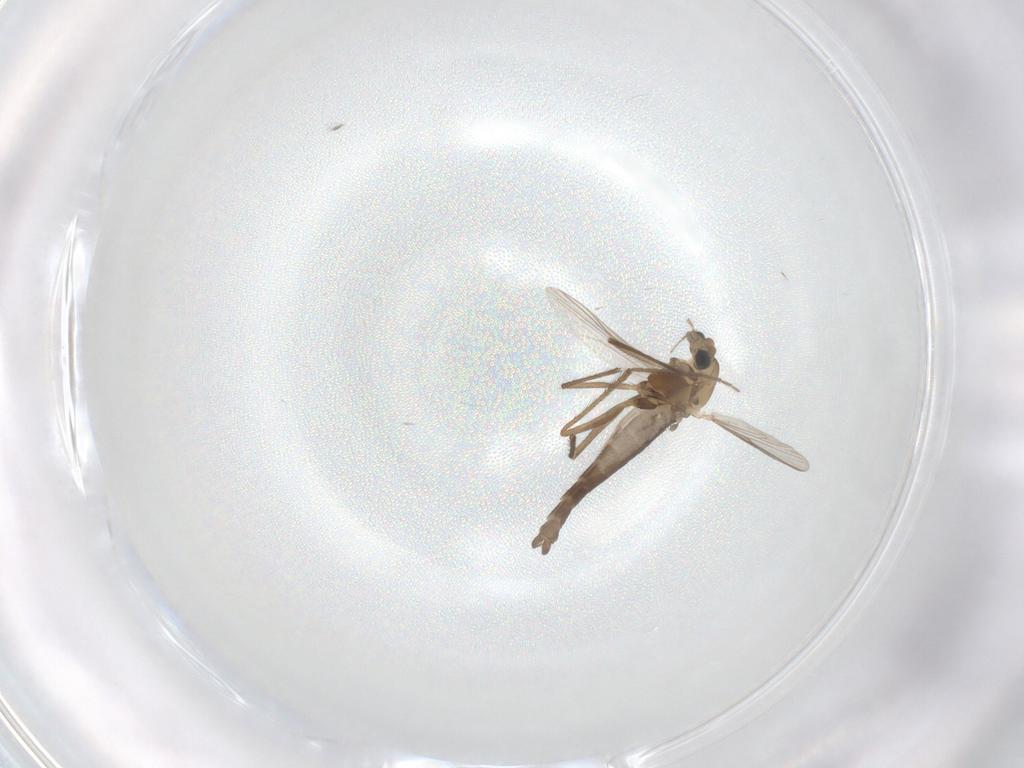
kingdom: Animalia
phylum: Arthropoda
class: Insecta
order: Diptera
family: Chironomidae
